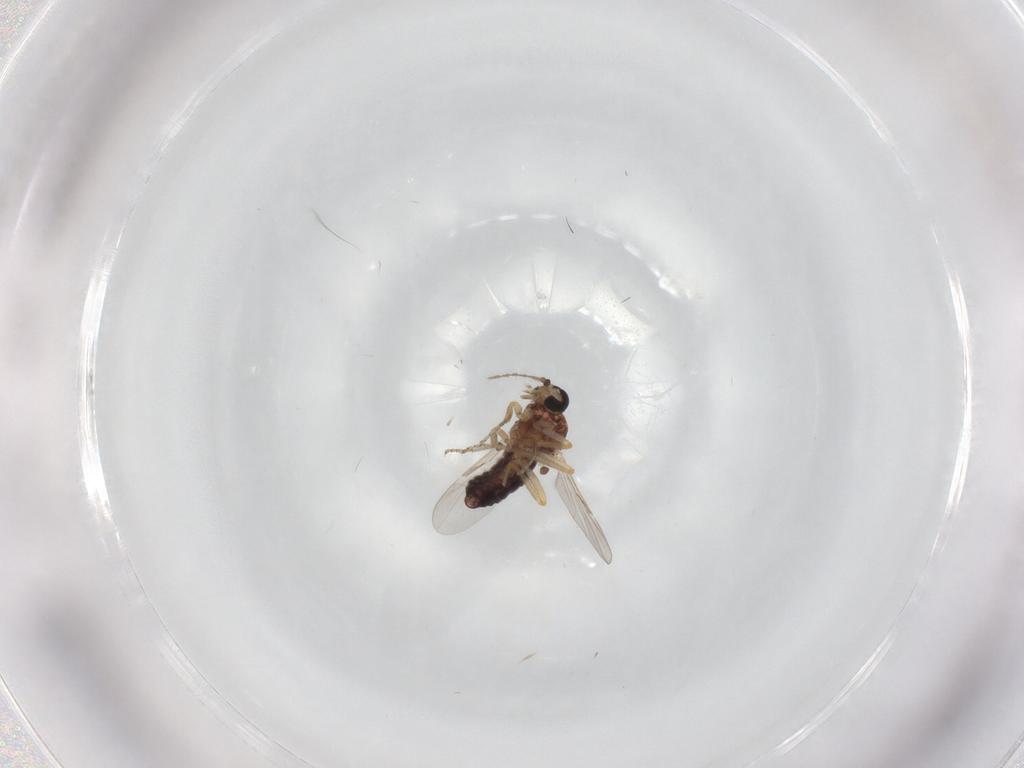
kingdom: Animalia
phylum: Arthropoda
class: Insecta
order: Diptera
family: Ceratopogonidae
